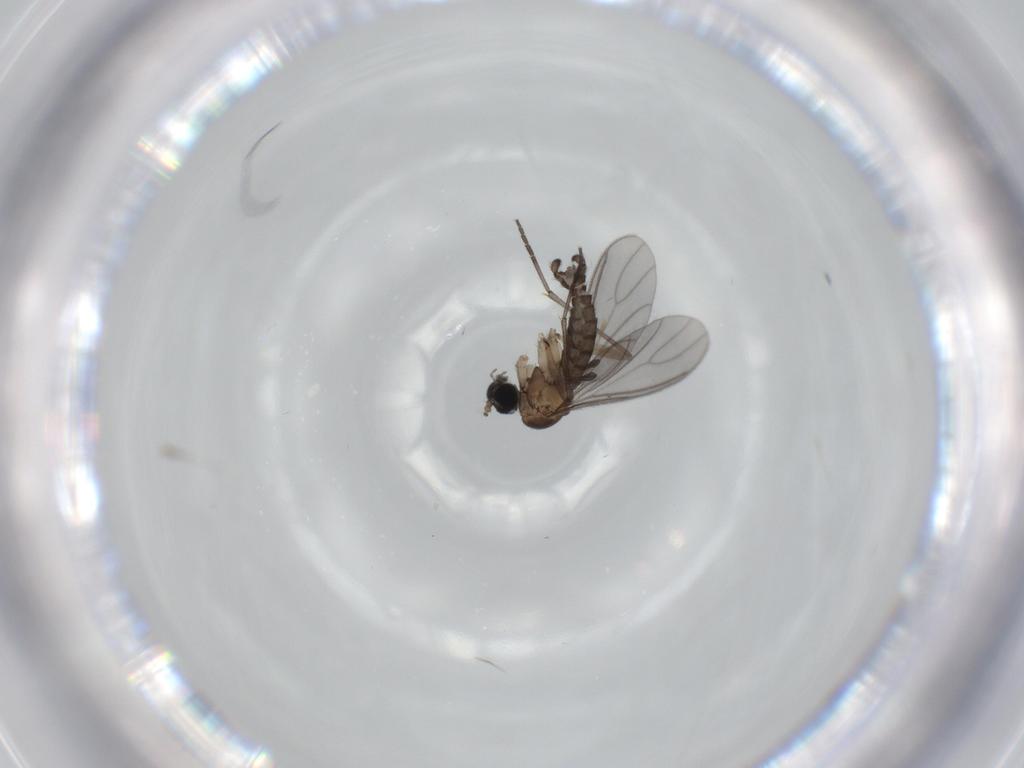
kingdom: Animalia
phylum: Arthropoda
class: Insecta
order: Diptera
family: Sciaridae
